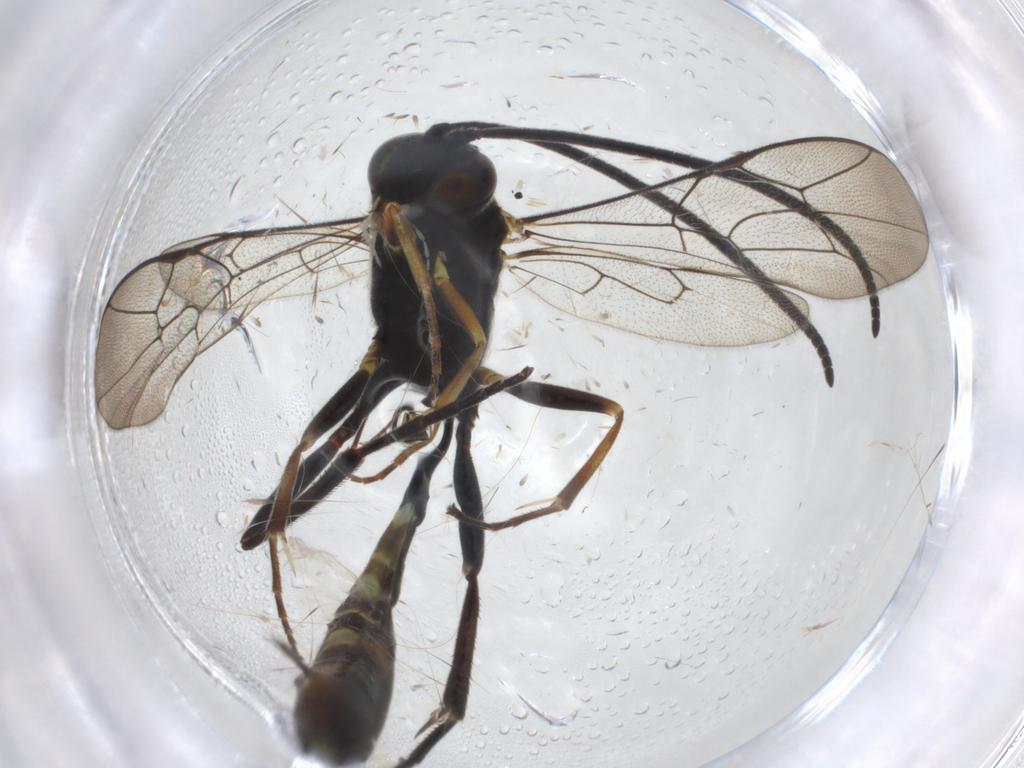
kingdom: Animalia
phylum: Arthropoda
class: Insecta
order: Hymenoptera
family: Ichneumonidae
